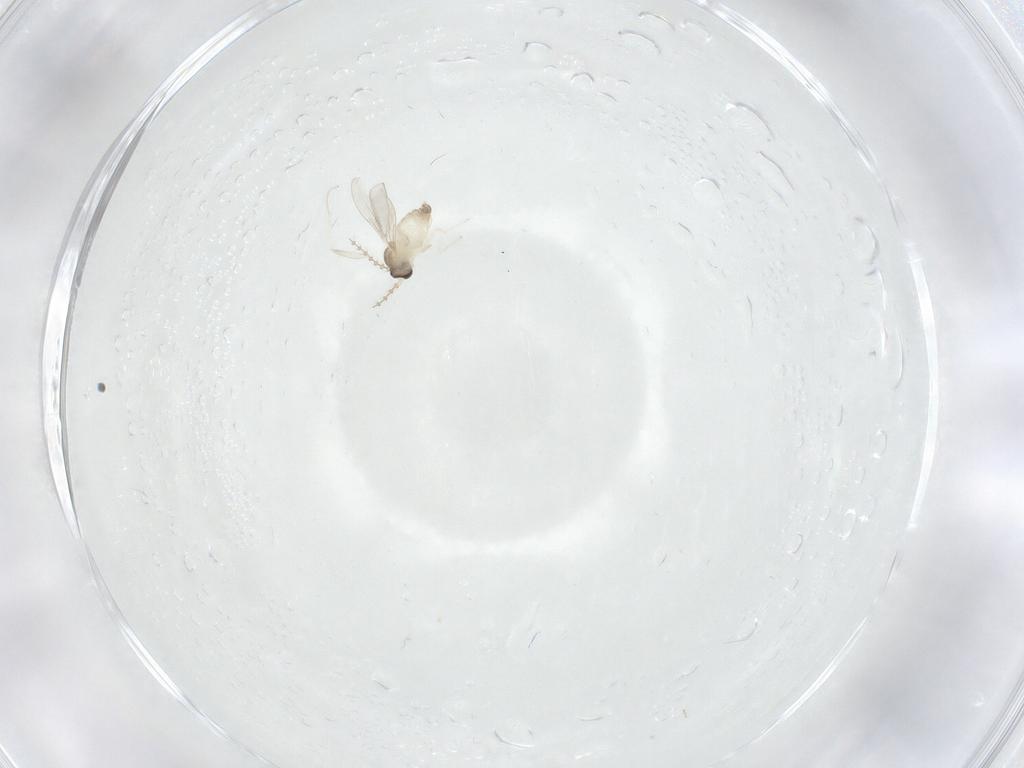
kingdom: Animalia
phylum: Arthropoda
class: Insecta
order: Diptera
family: Cecidomyiidae
